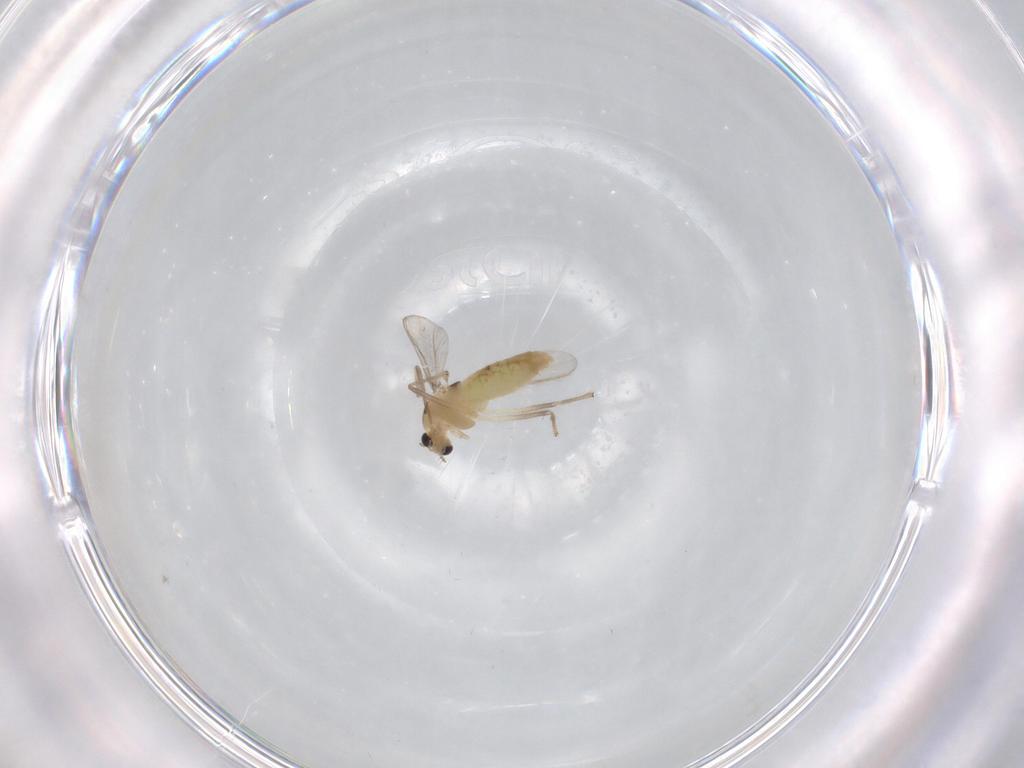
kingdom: Animalia
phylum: Arthropoda
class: Insecta
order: Diptera
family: Chironomidae
